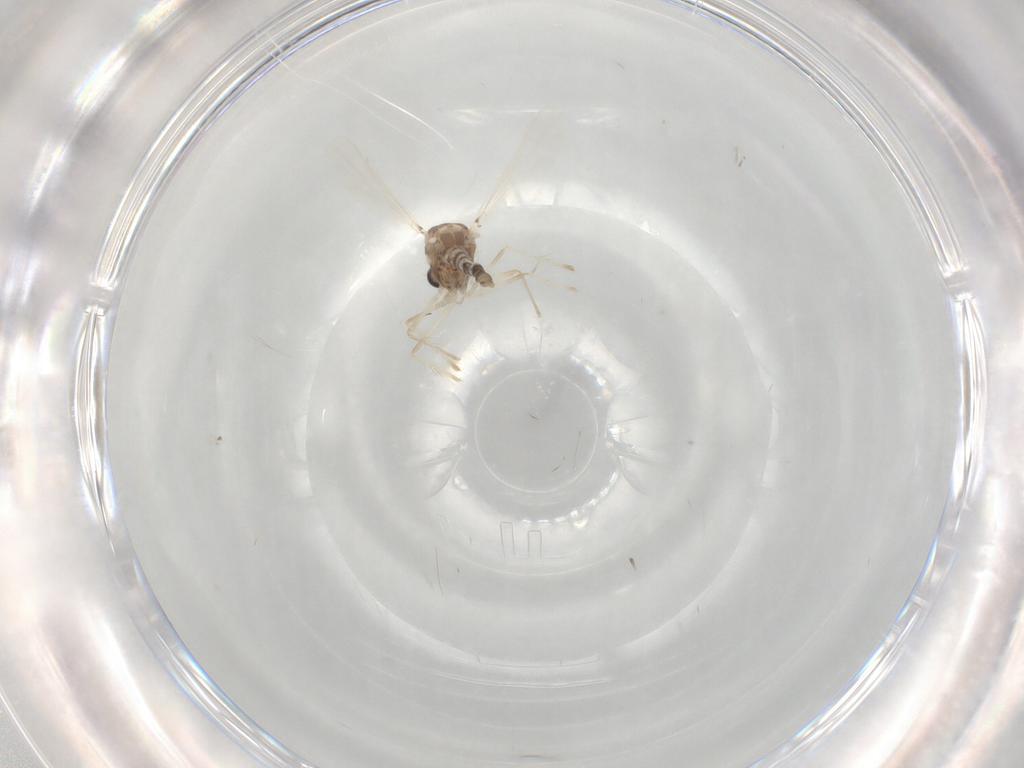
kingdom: Animalia
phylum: Arthropoda
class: Insecta
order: Diptera
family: Chironomidae
